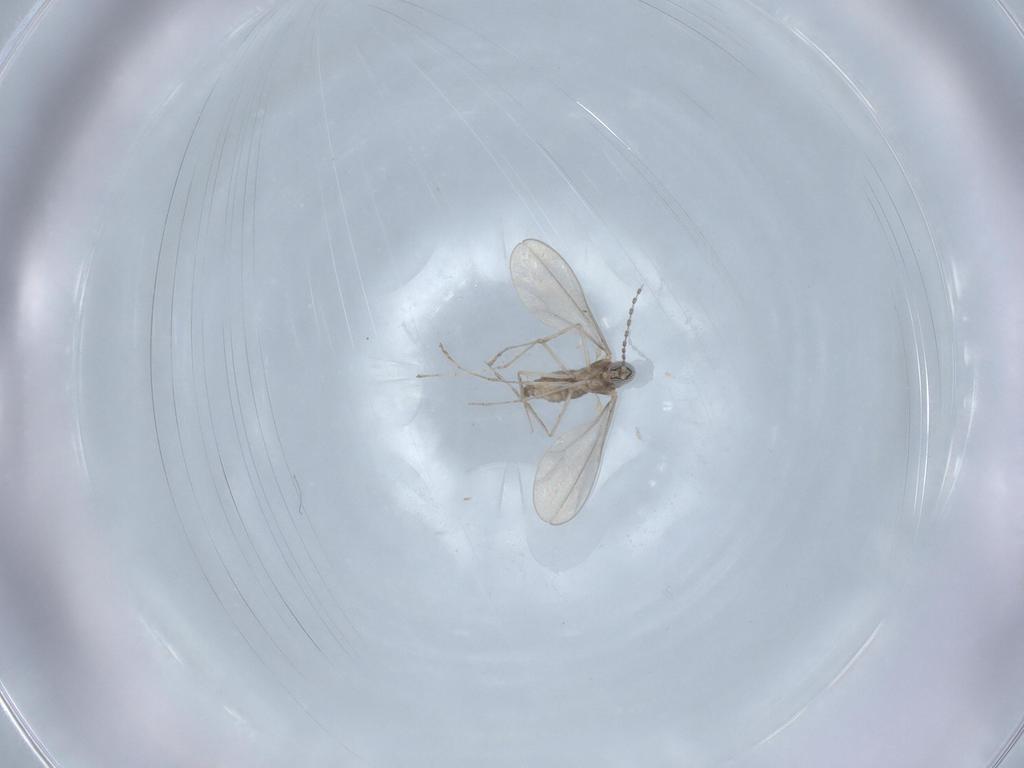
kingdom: Animalia
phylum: Arthropoda
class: Insecta
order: Diptera
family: Cecidomyiidae
